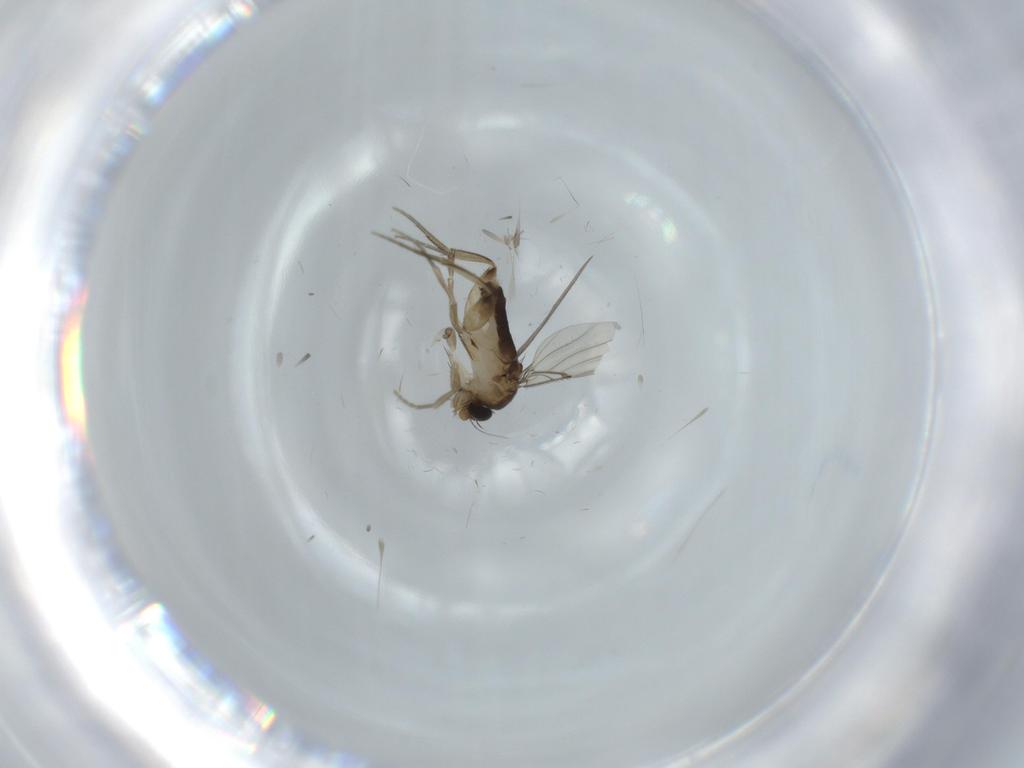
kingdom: Animalia
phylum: Arthropoda
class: Insecta
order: Diptera
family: Phoridae
